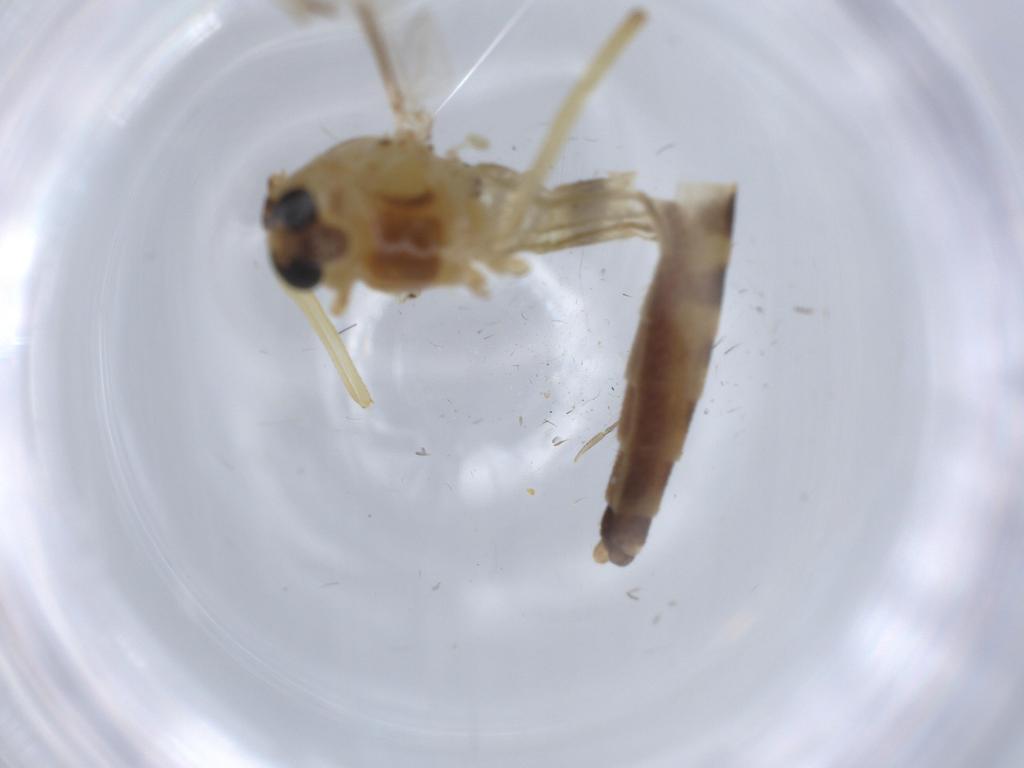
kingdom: Animalia
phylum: Arthropoda
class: Insecta
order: Diptera
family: Chironomidae
